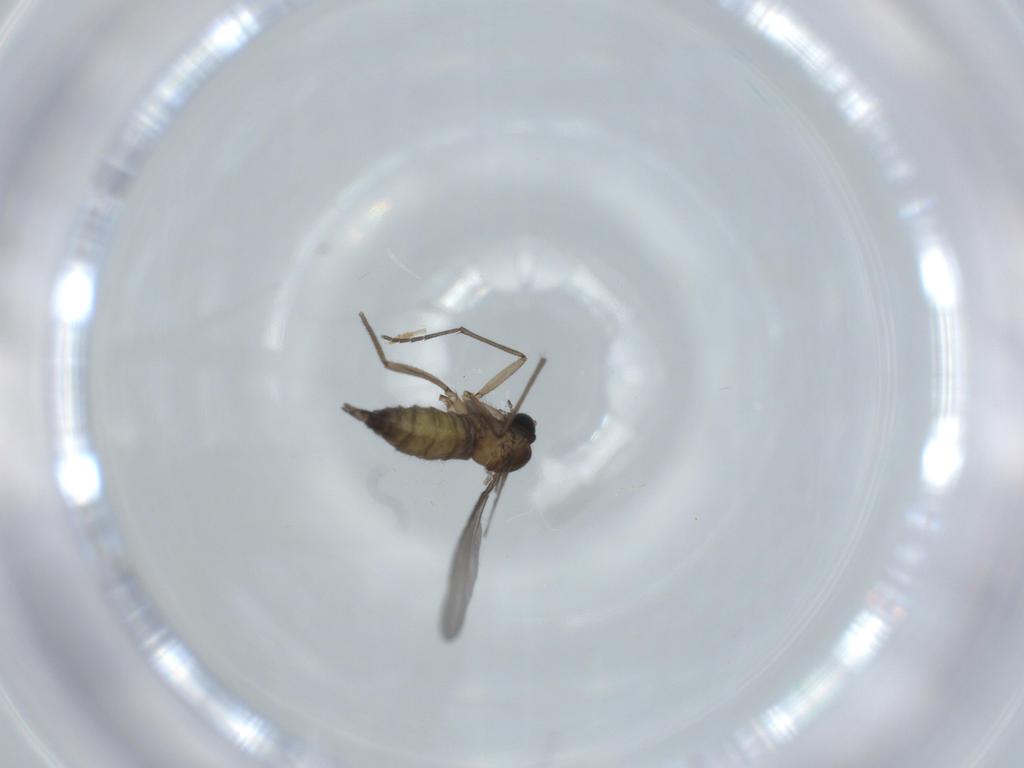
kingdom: Animalia
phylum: Arthropoda
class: Insecta
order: Diptera
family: Sciaridae
